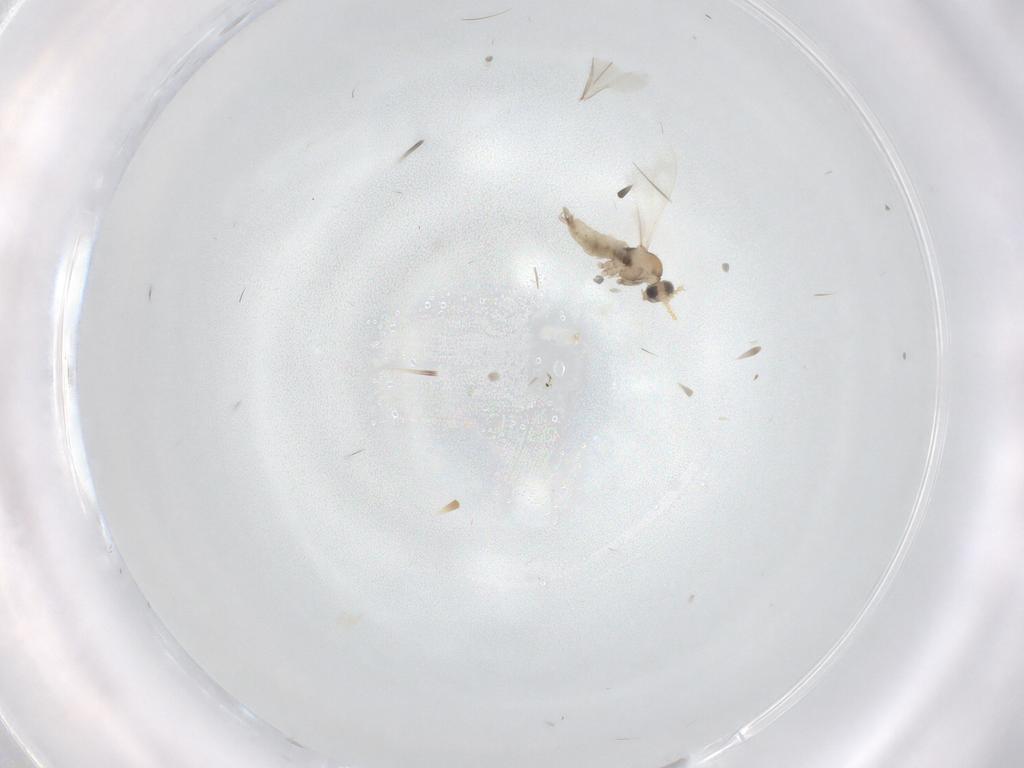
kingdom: Animalia
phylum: Arthropoda
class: Insecta
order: Diptera
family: Cecidomyiidae
